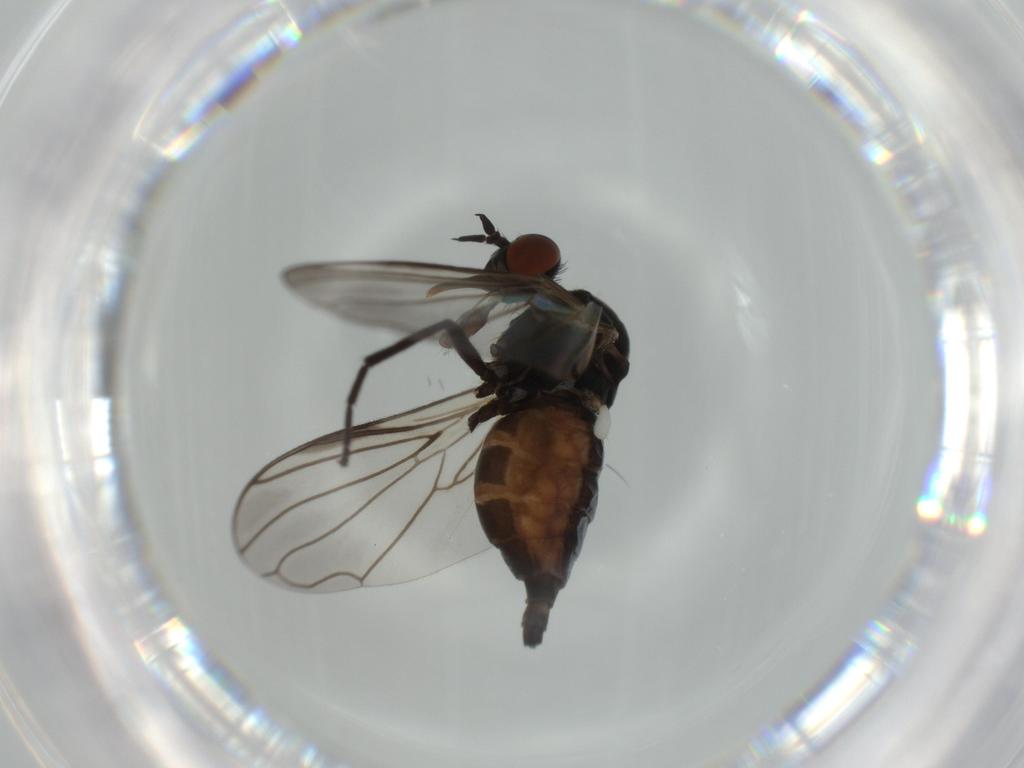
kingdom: Animalia
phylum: Arthropoda
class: Insecta
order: Diptera
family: Empididae
